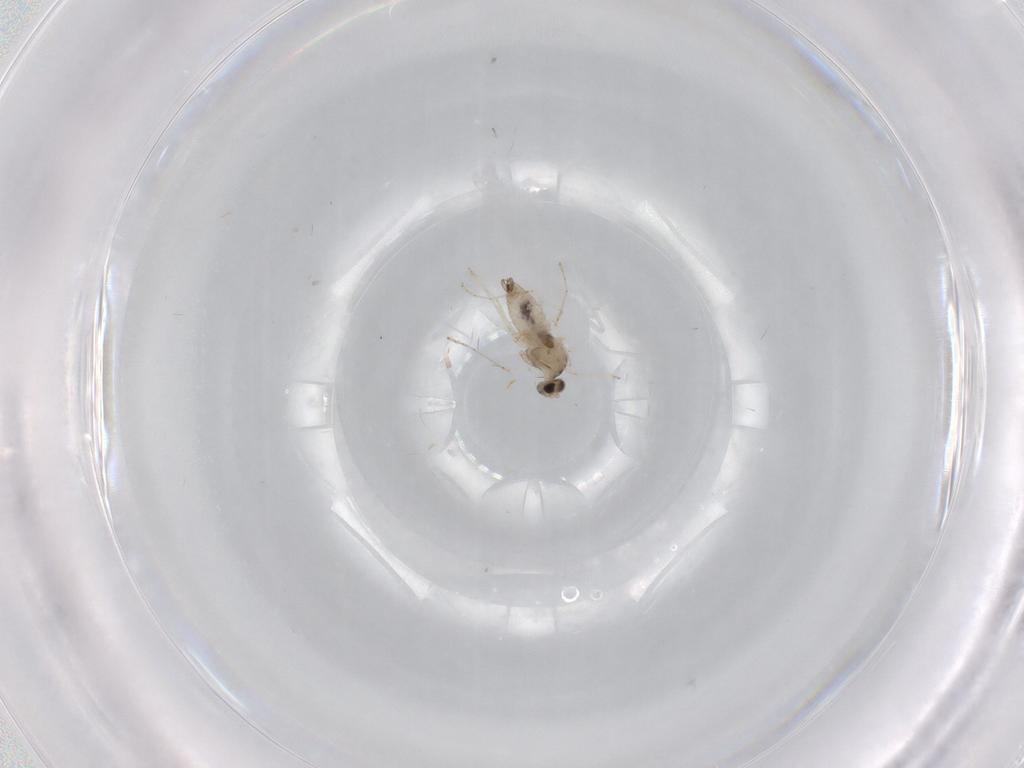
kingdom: Animalia
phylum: Arthropoda
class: Insecta
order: Diptera
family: Cecidomyiidae
